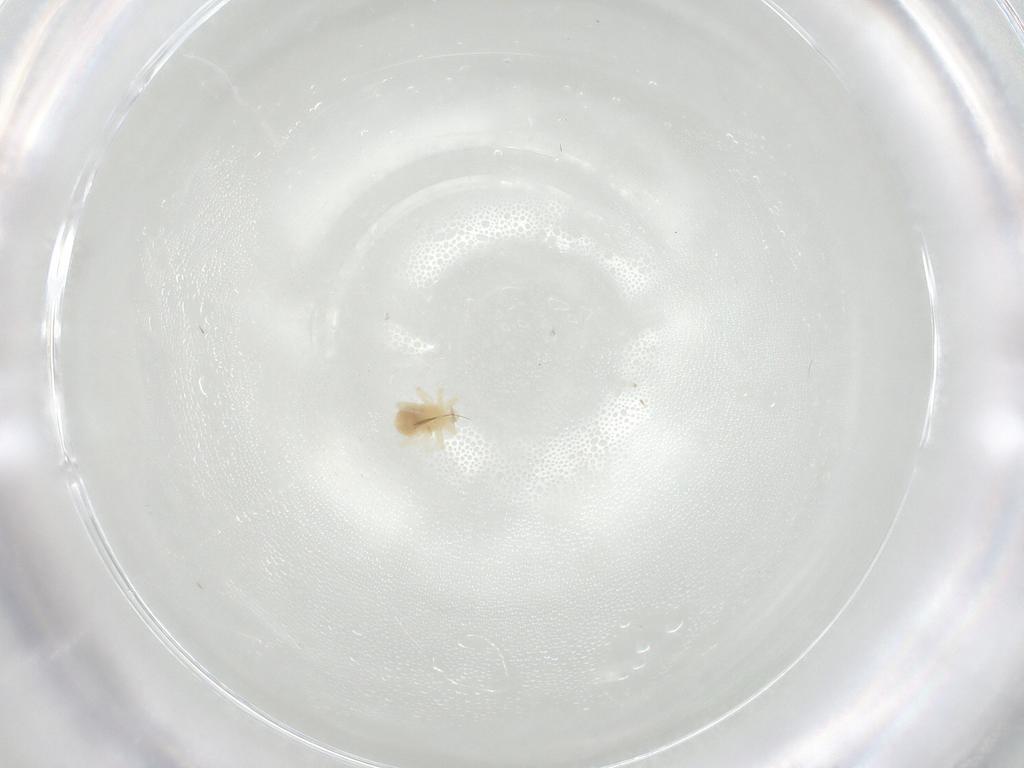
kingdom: Animalia
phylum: Arthropoda
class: Arachnida
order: Trombidiformes
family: Anystidae
